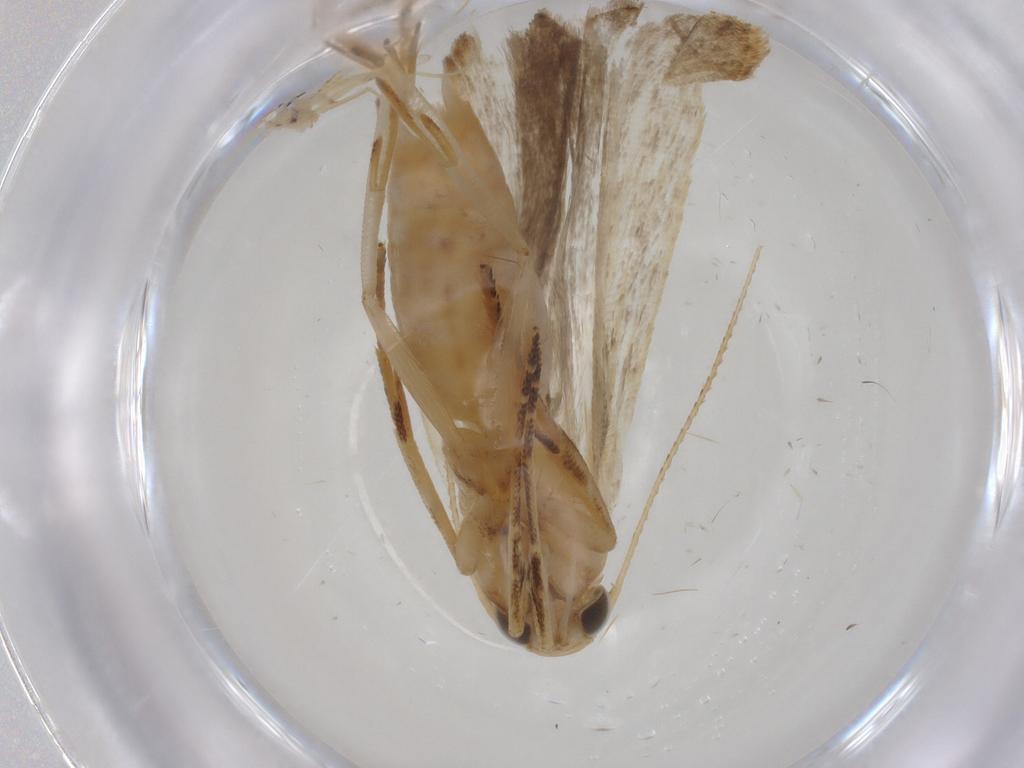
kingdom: Animalia
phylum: Arthropoda
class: Insecta
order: Lepidoptera
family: Gelechiidae
